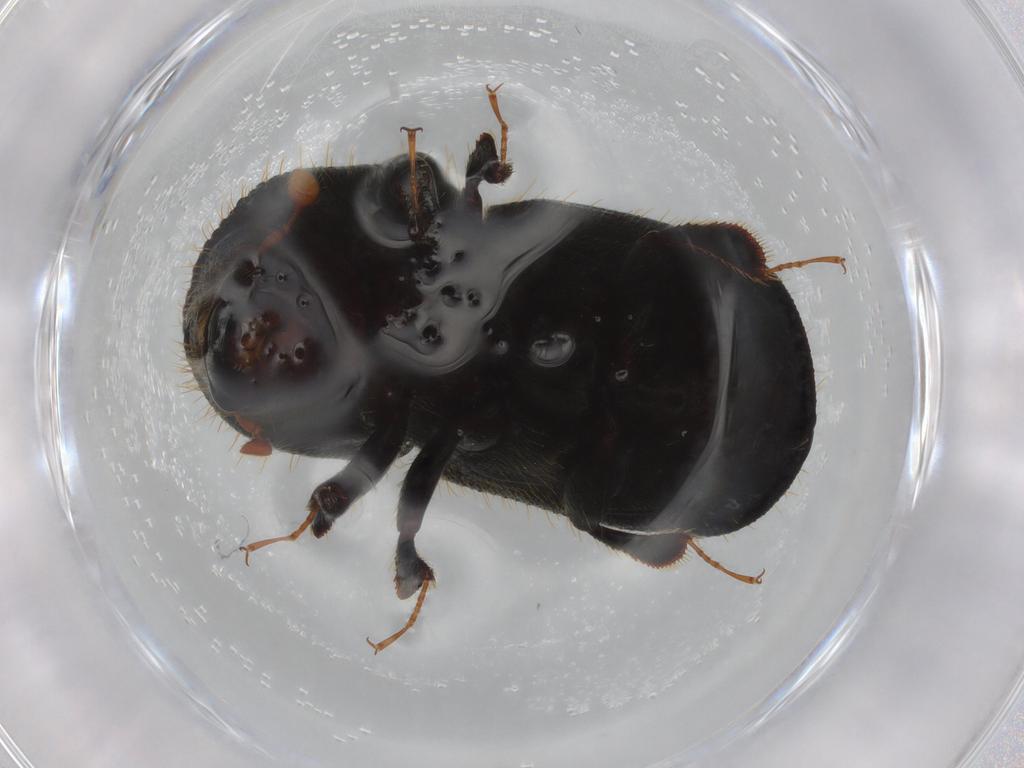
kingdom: Animalia
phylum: Arthropoda
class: Insecta
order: Coleoptera
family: Curculionidae
